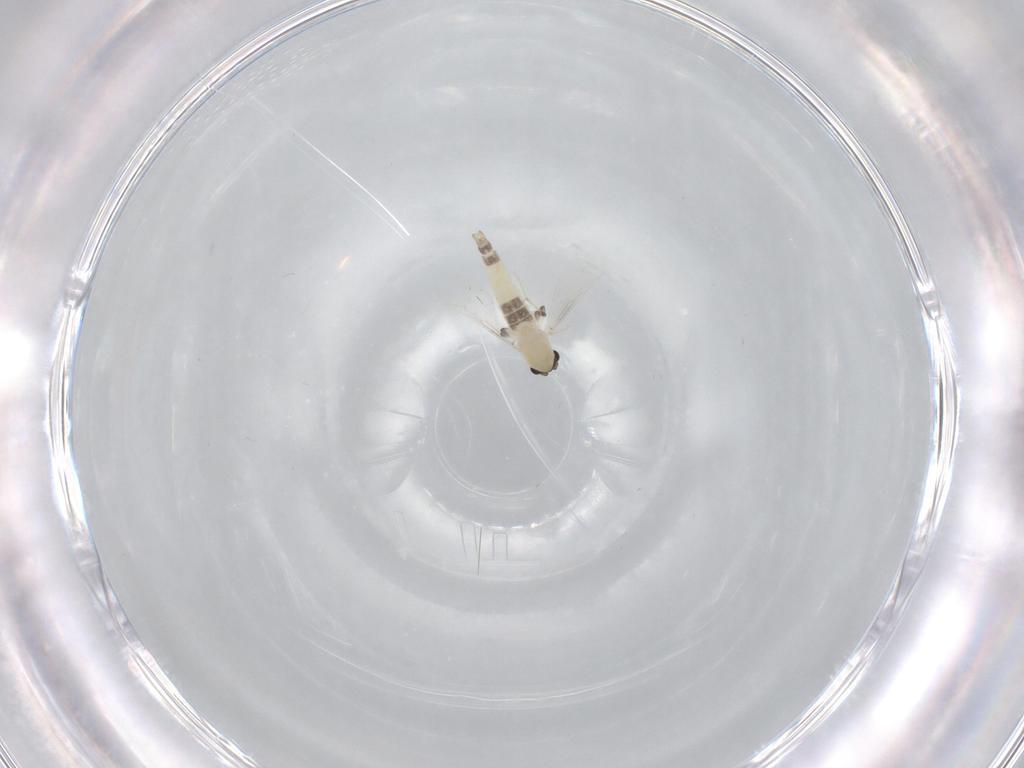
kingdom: Animalia
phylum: Arthropoda
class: Insecta
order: Diptera
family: Chironomidae
